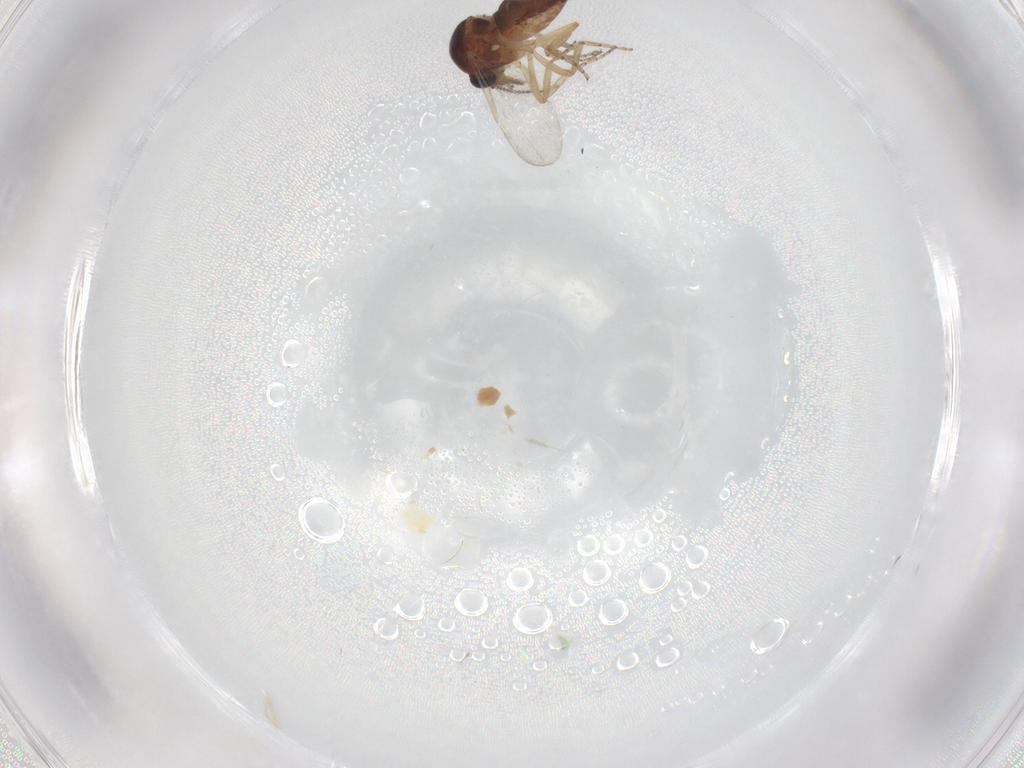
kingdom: Animalia
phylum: Arthropoda
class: Insecta
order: Diptera
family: Ceratopogonidae
